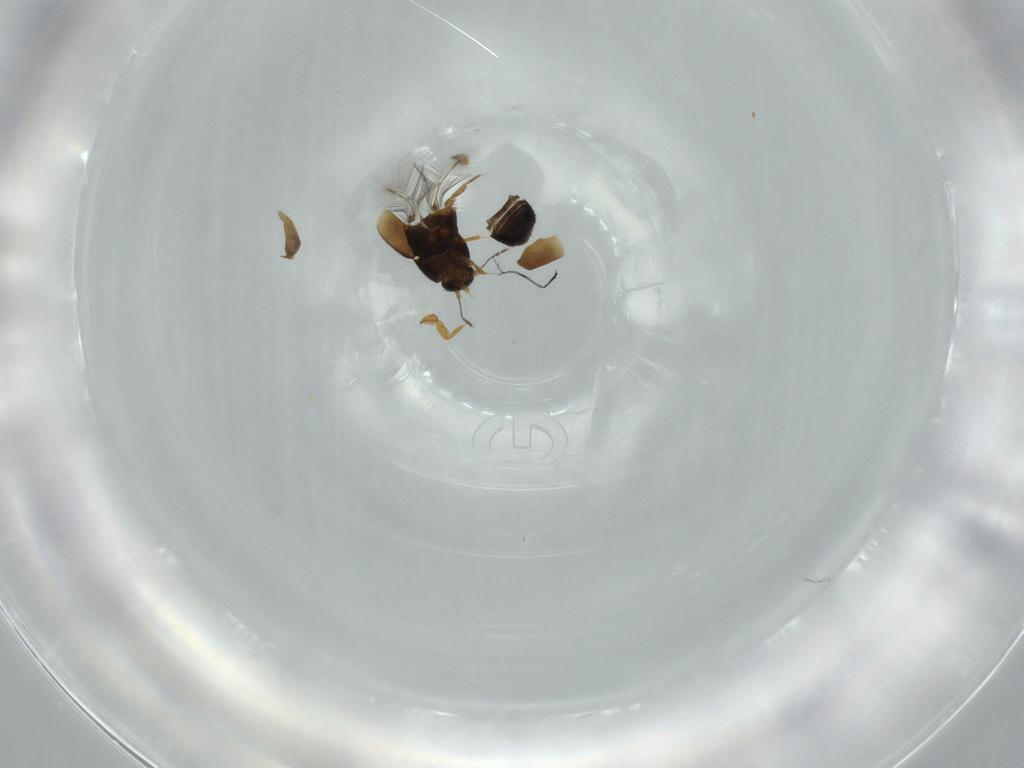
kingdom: Animalia
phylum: Arthropoda
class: Insecta
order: Coleoptera
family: Ptiliidae
